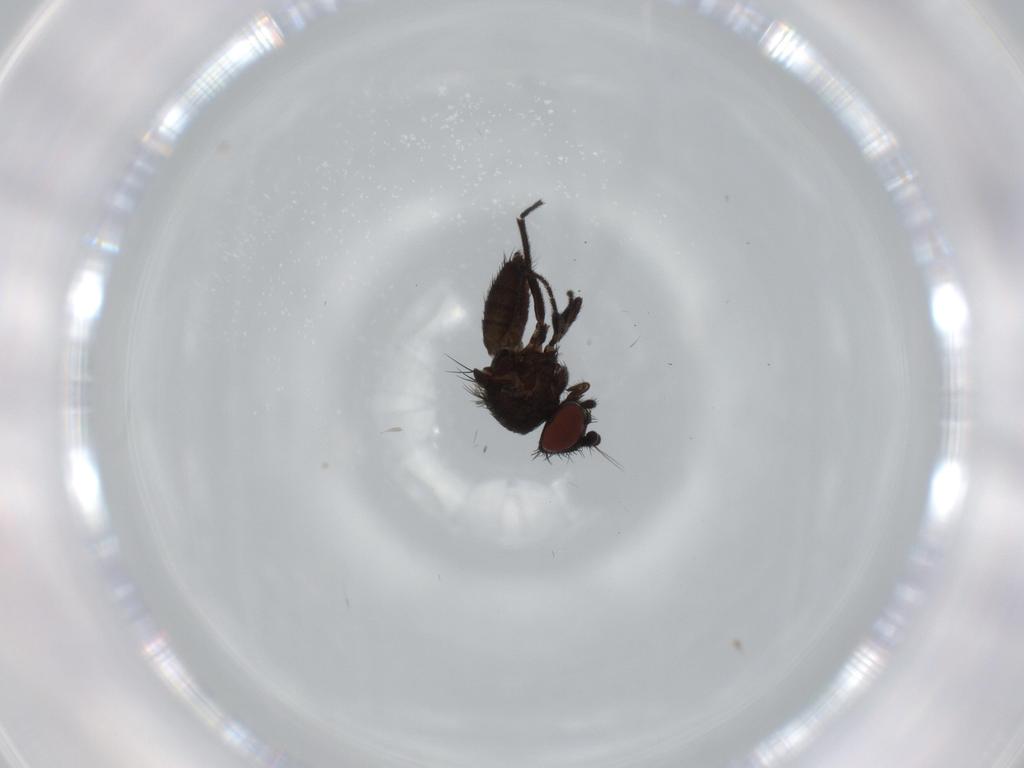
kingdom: Animalia
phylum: Arthropoda
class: Insecta
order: Diptera
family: Milichiidae
